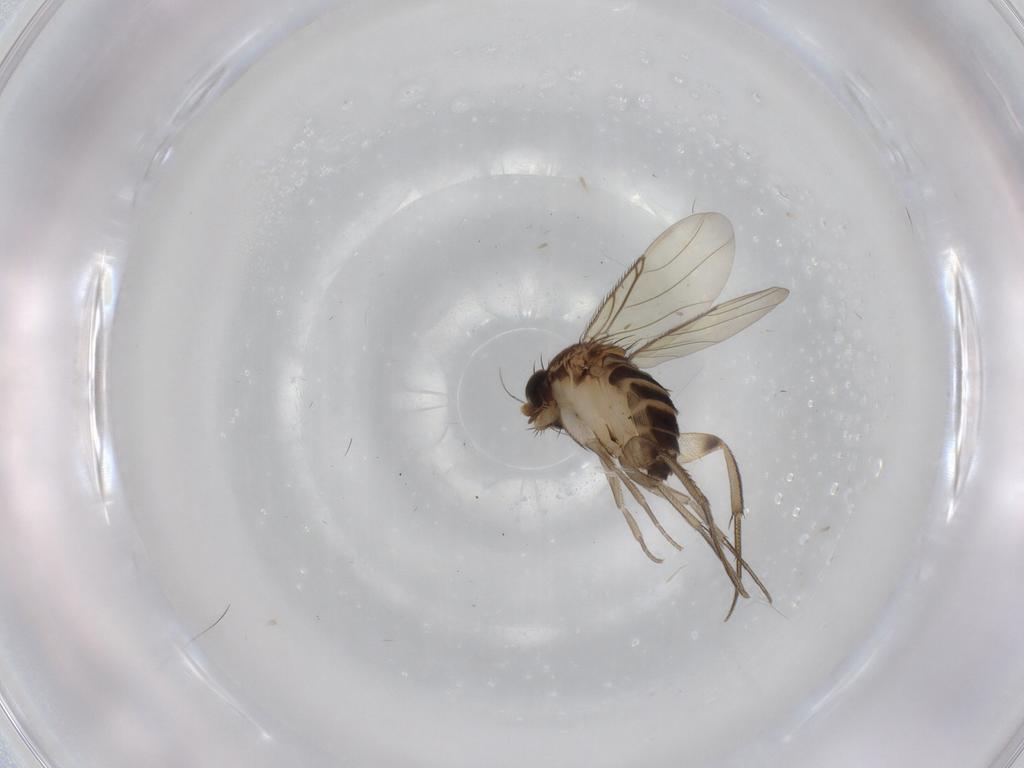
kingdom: Animalia
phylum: Arthropoda
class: Insecta
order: Diptera
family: Phoridae
